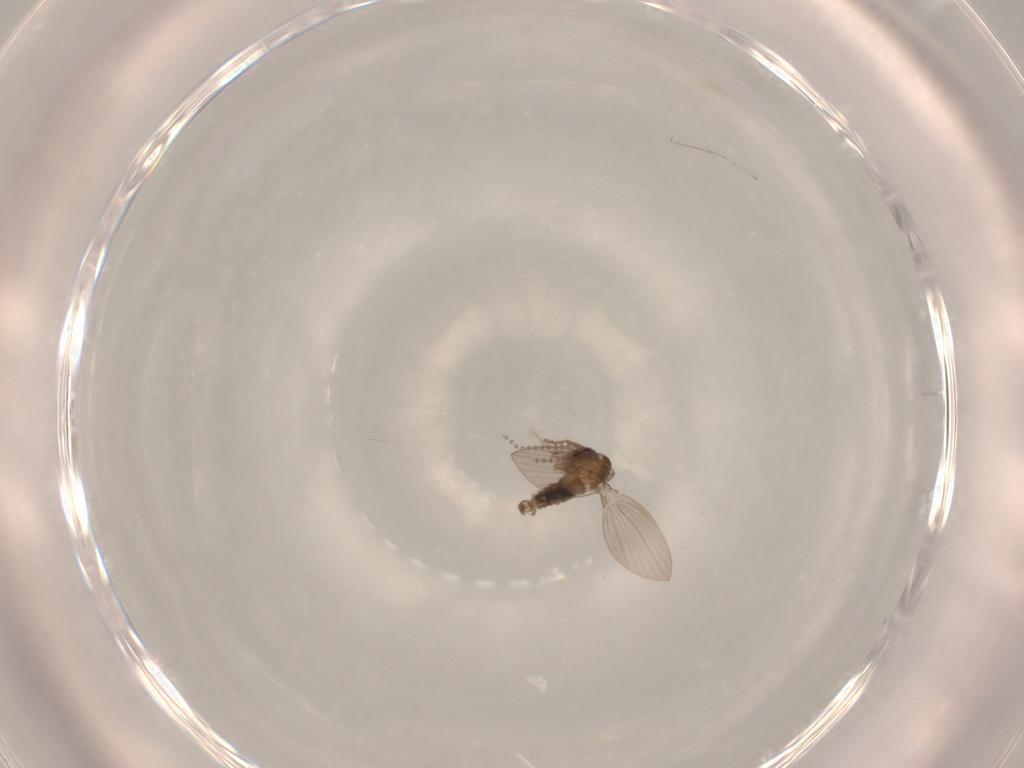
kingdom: Animalia
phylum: Arthropoda
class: Insecta
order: Diptera
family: Psychodidae
